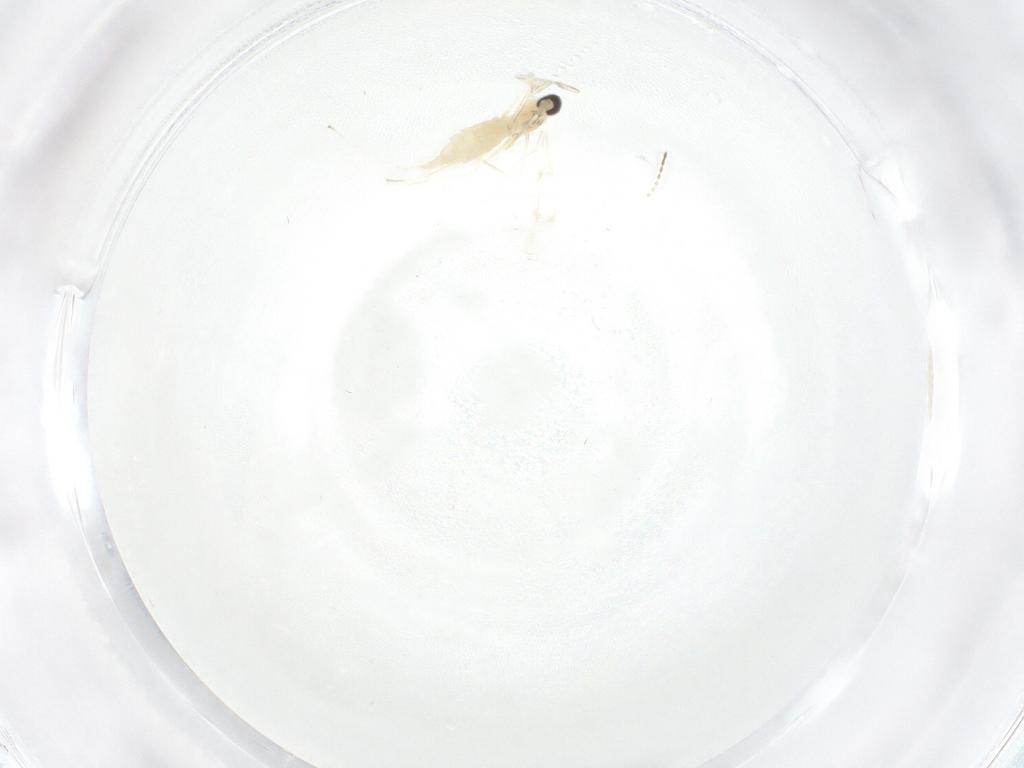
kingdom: Animalia
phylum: Arthropoda
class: Insecta
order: Diptera
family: Cecidomyiidae
